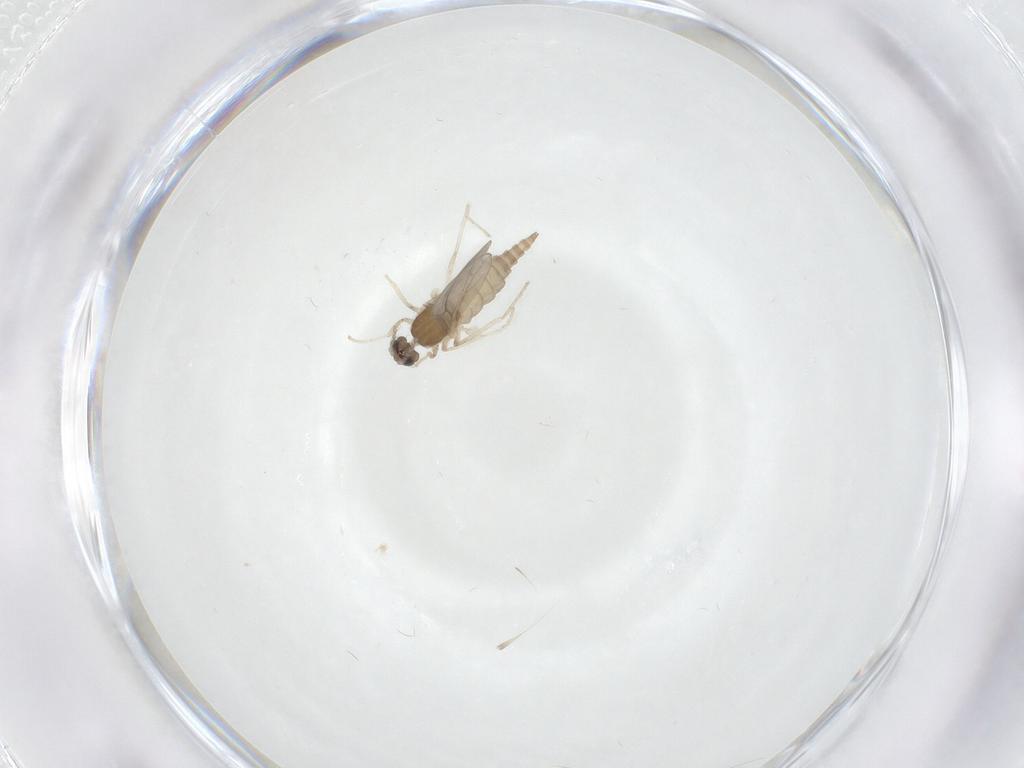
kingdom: Animalia
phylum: Arthropoda
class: Insecta
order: Diptera
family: Cecidomyiidae
